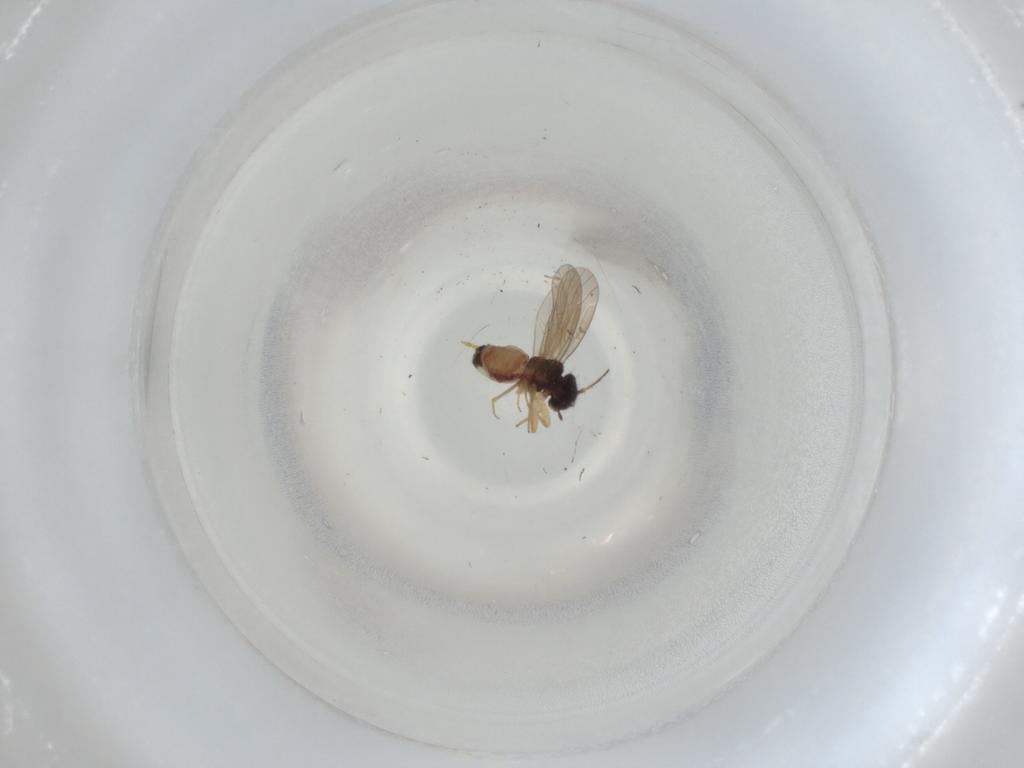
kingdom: Animalia
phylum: Arthropoda
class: Insecta
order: Diptera
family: Chloropidae
